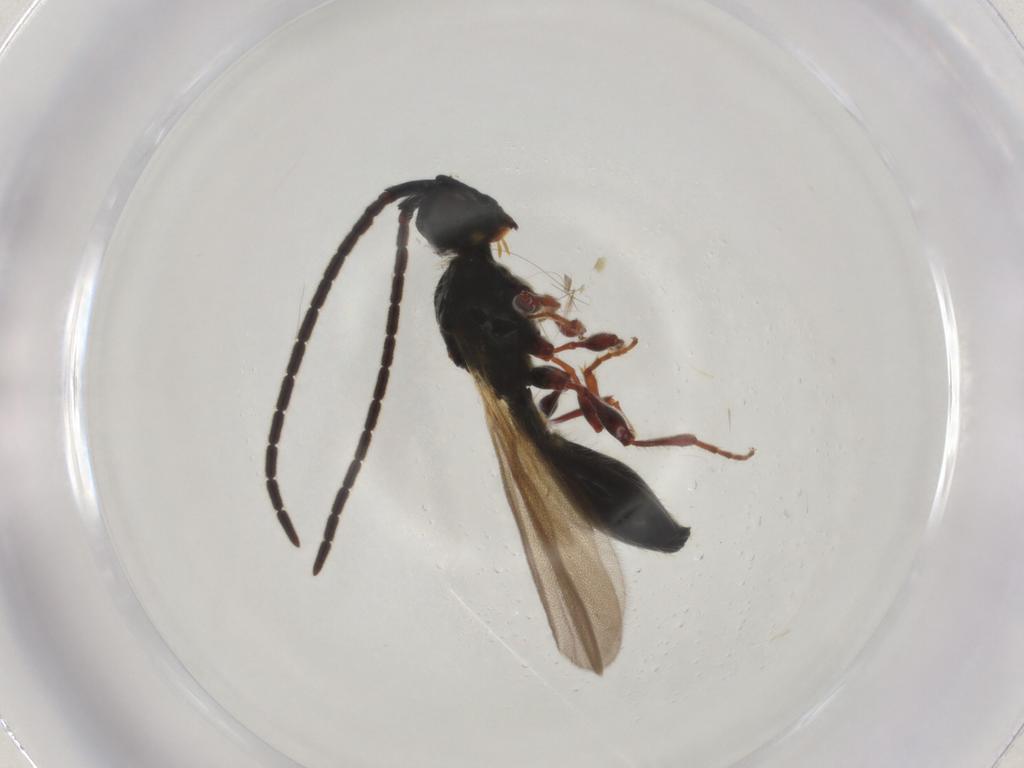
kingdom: Animalia
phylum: Arthropoda
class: Insecta
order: Hymenoptera
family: Diapriidae
